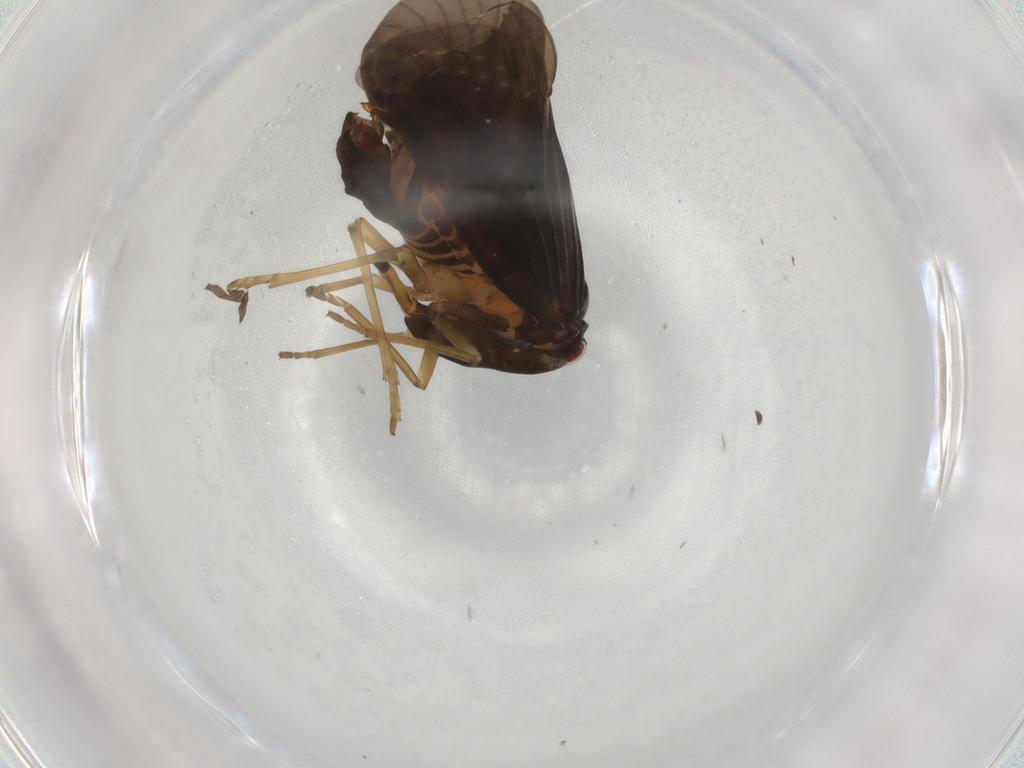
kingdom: Animalia
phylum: Arthropoda
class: Insecta
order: Hemiptera
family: Cicadellidae
